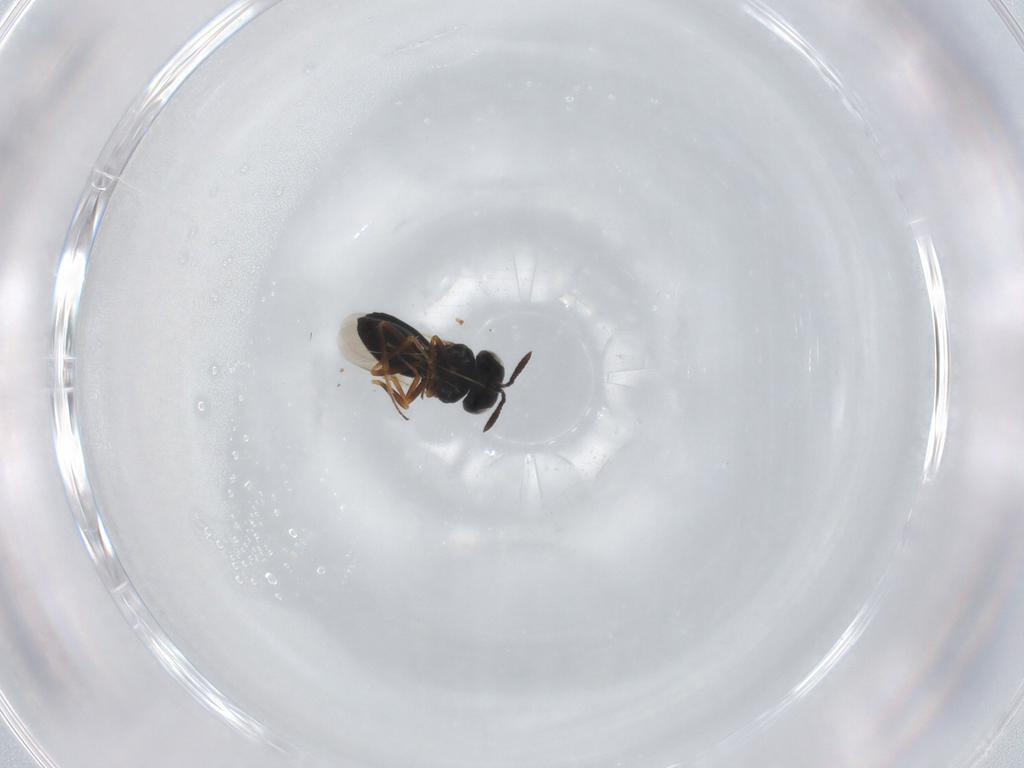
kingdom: Animalia
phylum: Arthropoda
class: Insecta
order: Hymenoptera
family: Scelionidae
